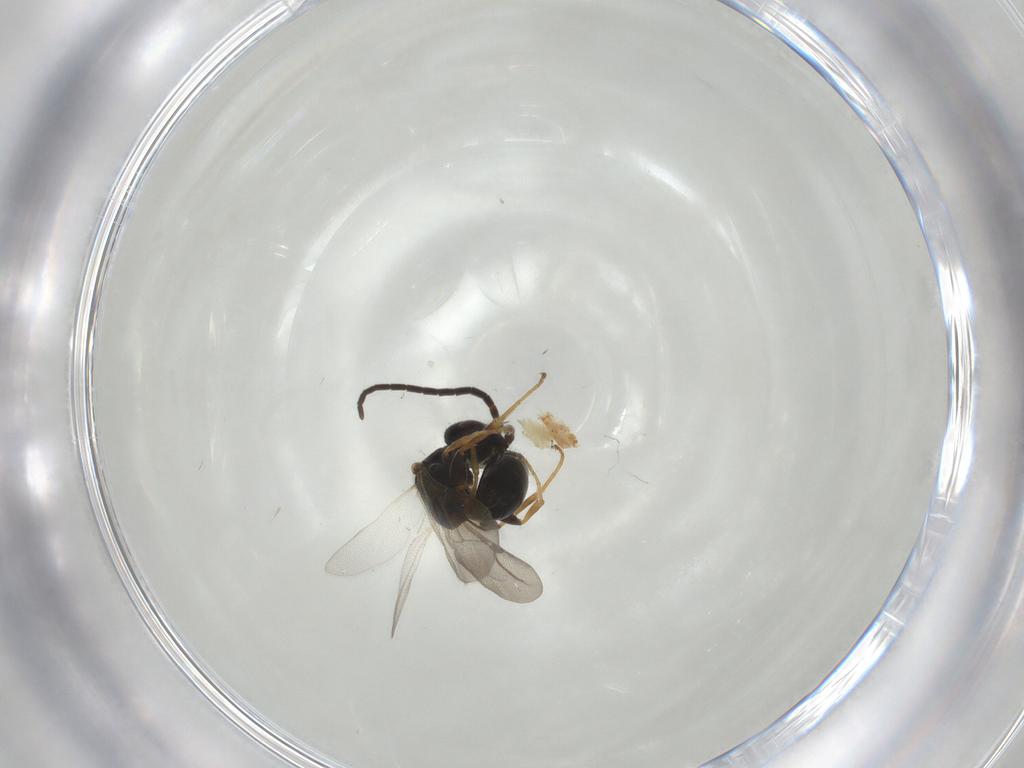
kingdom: Animalia
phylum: Arthropoda
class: Insecta
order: Hymenoptera
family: Bethylidae
